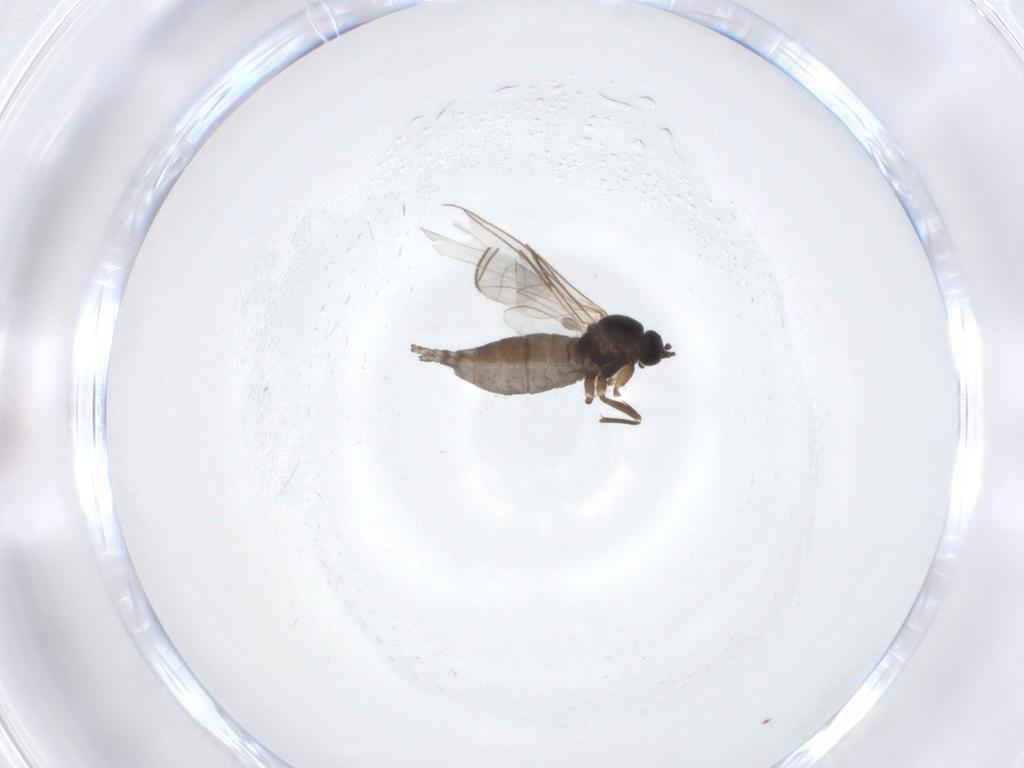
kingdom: Animalia
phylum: Arthropoda
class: Insecta
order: Diptera
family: Sciaridae
